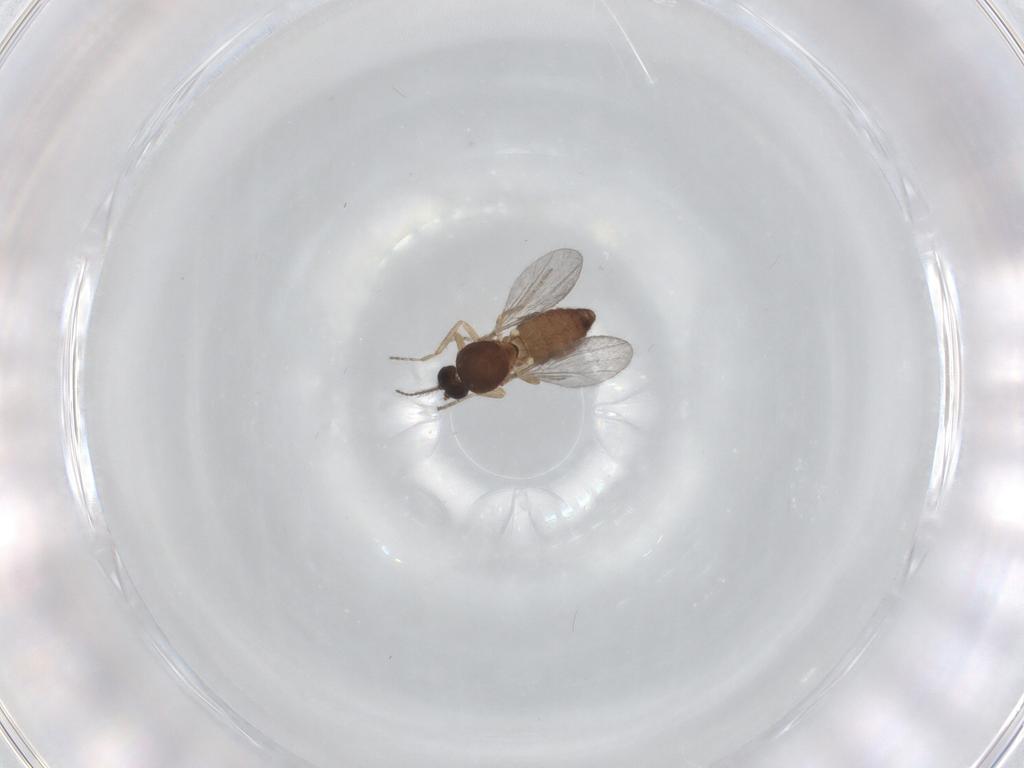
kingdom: Animalia
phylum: Arthropoda
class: Insecta
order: Diptera
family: Ceratopogonidae
